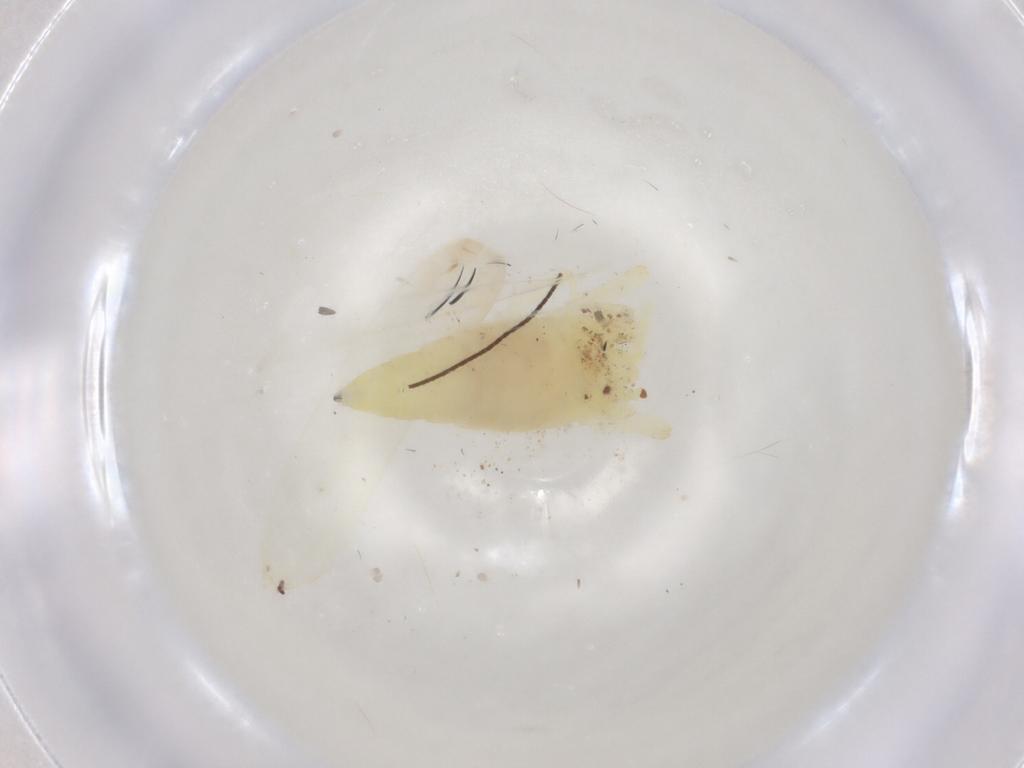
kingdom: Animalia
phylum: Arthropoda
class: Insecta
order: Hemiptera
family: Cicadellidae
